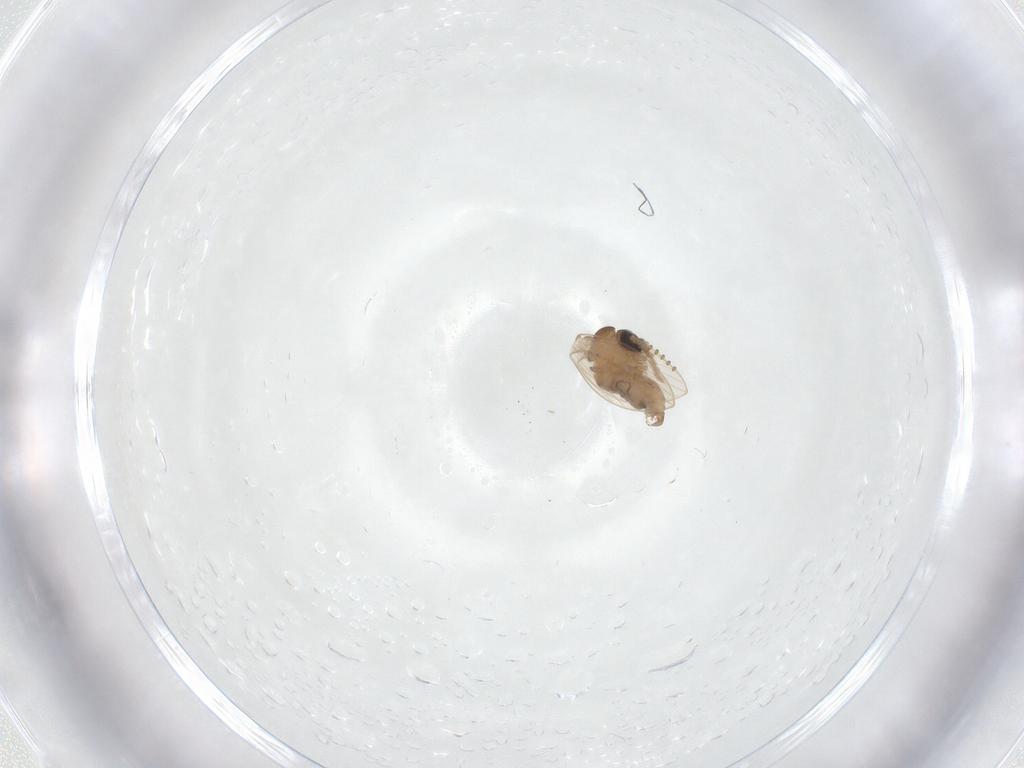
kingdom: Animalia
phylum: Arthropoda
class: Insecta
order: Diptera
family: Psychodidae
